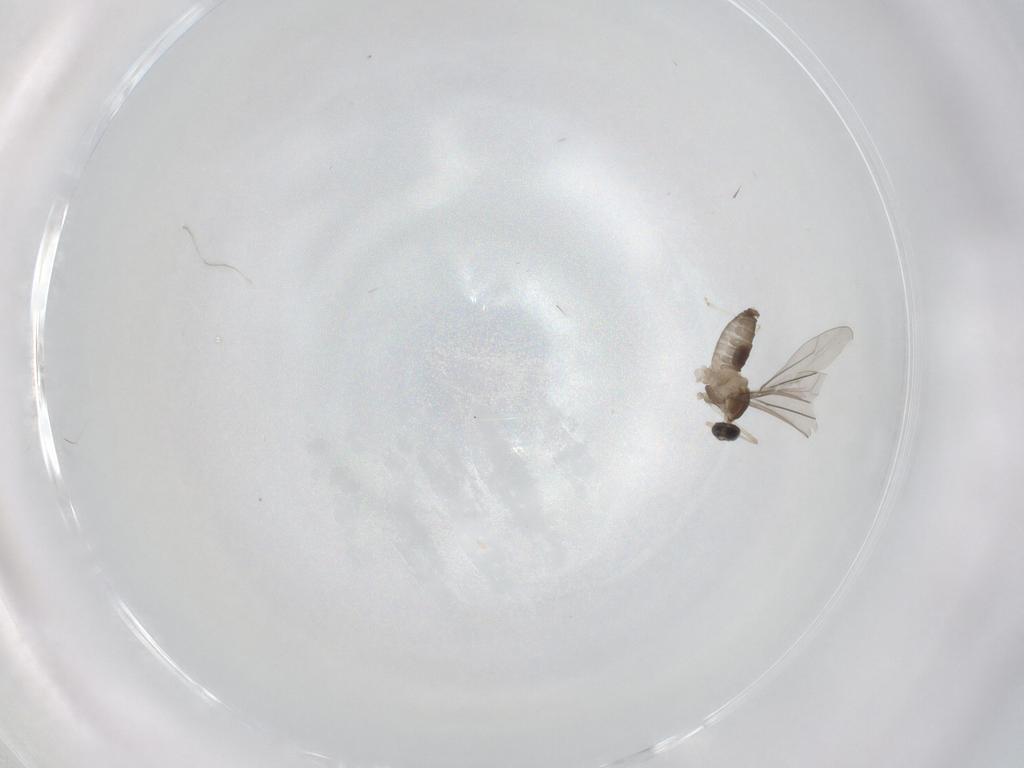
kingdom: Animalia
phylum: Arthropoda
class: Insecta
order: Diptera
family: Cecidomyiidae
